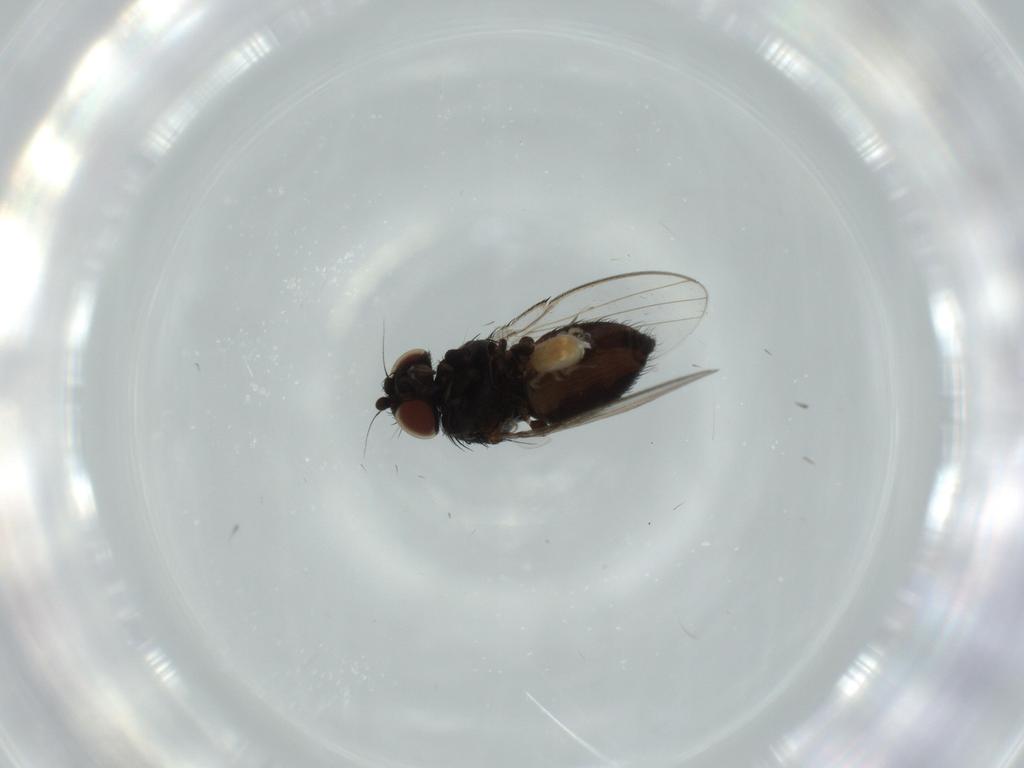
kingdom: Animalia
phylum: Arthropoda
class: Insecta
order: Diptera
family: Milichiidae
